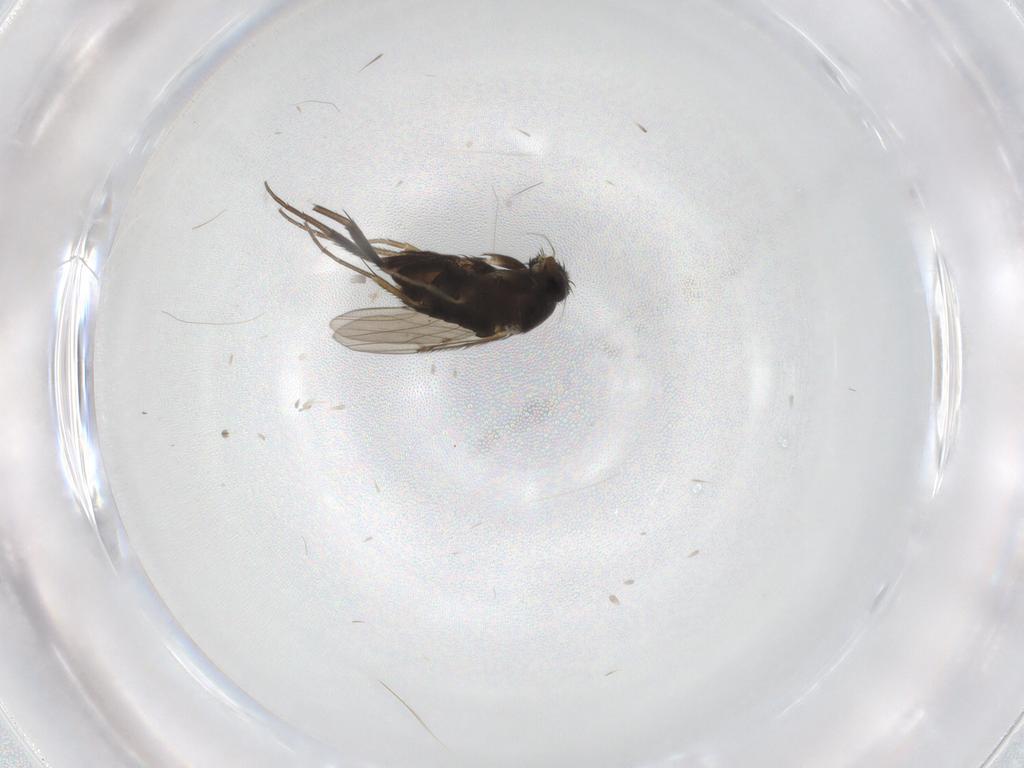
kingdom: Animalia
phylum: Arthropoda
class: Insecta
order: Diptera
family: Phoridae
